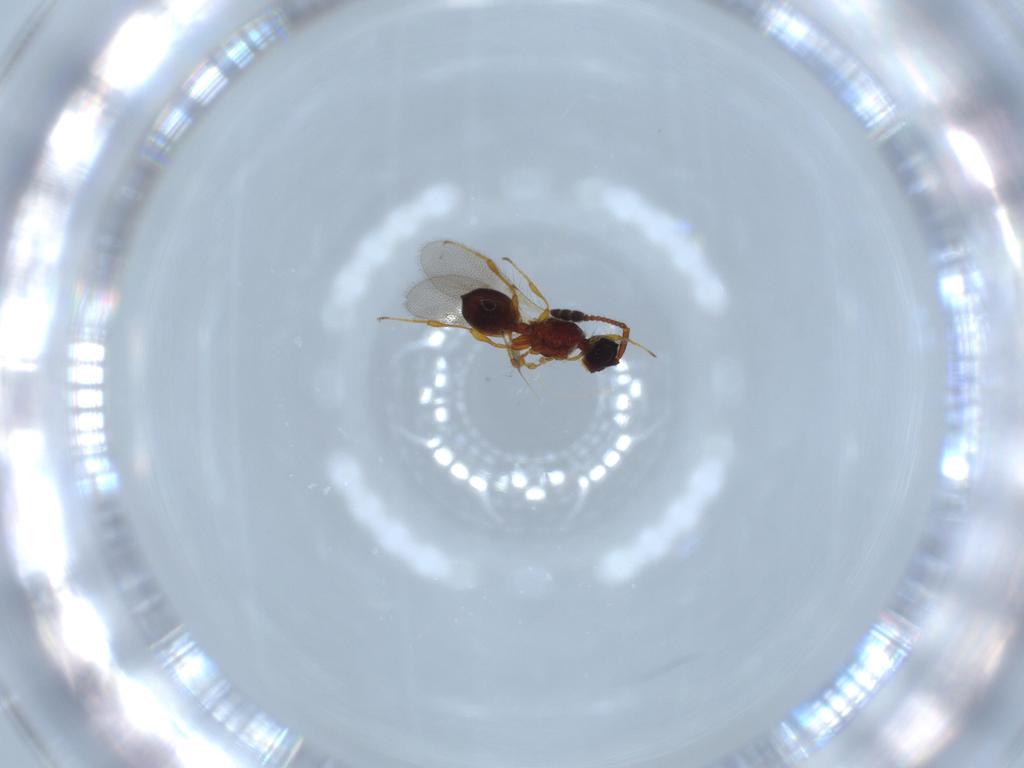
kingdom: Animalia
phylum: Arthropoda
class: Insecta
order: Hymenoptera
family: Diapriidae
